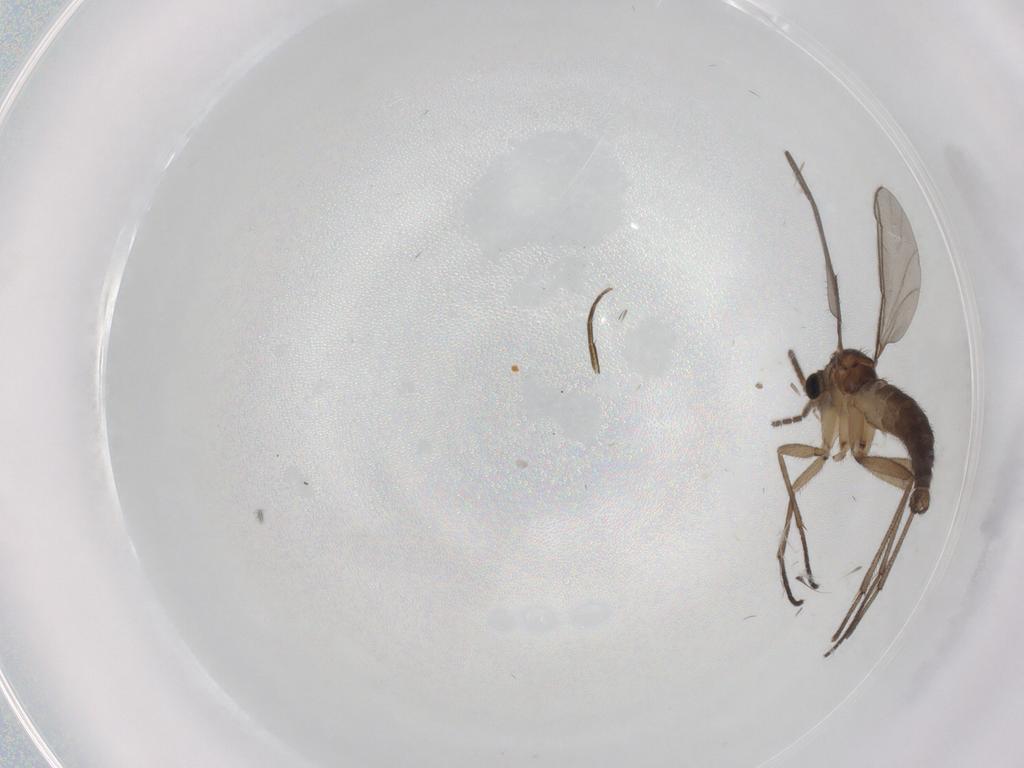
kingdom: Animalia
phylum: Arthropoda
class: Insecta
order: Diptera
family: Sciaridae
